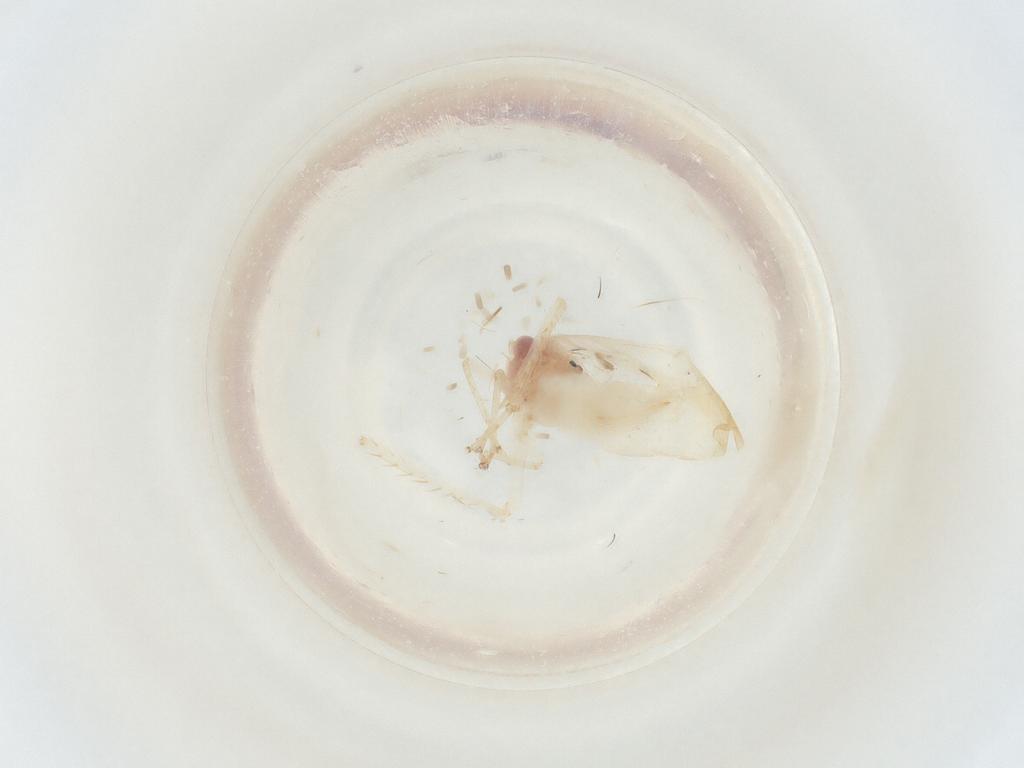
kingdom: Animalia
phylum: Arthropoda
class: Insecta
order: Hemiptera
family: Cicadellidae
